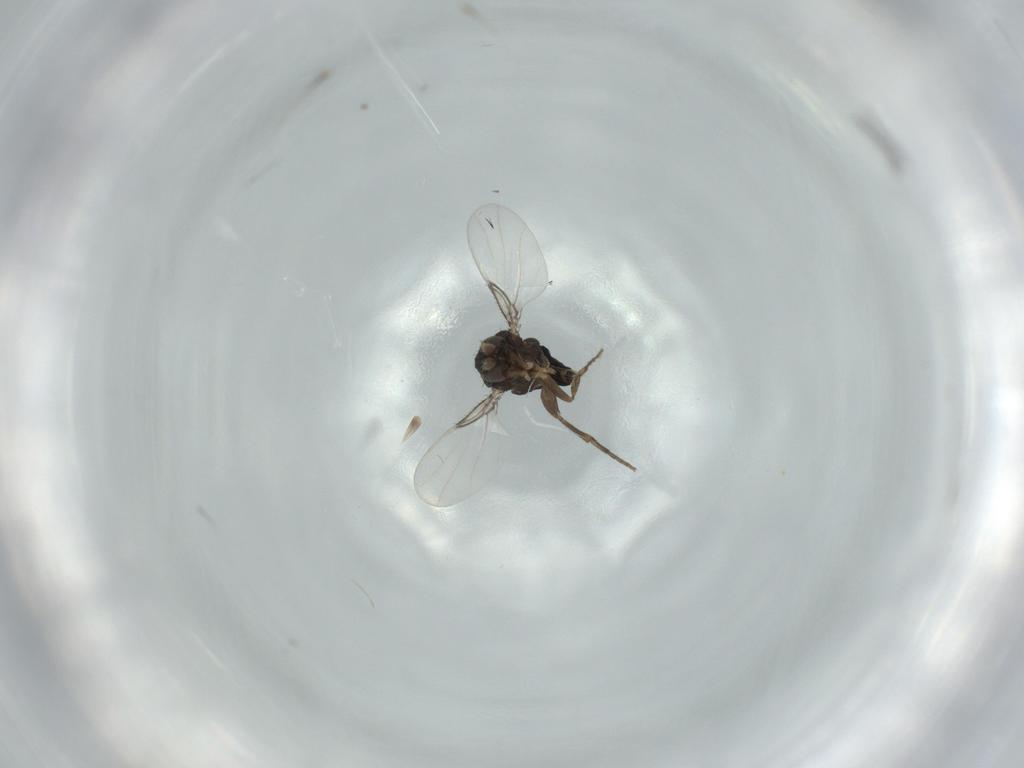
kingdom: Animalia
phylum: Arthropoda
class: Insecta
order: Diptera
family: Phoridae
